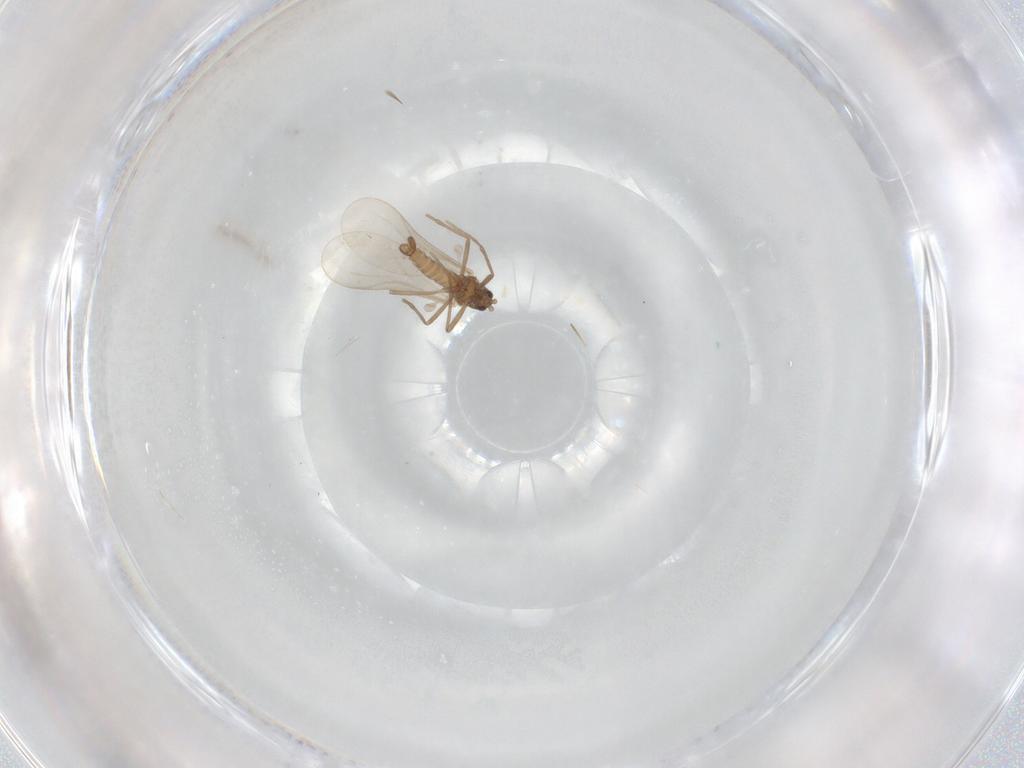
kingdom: Animalia
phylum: Arthropoda
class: Insecta
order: Diptera
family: Cecidomyiidae
